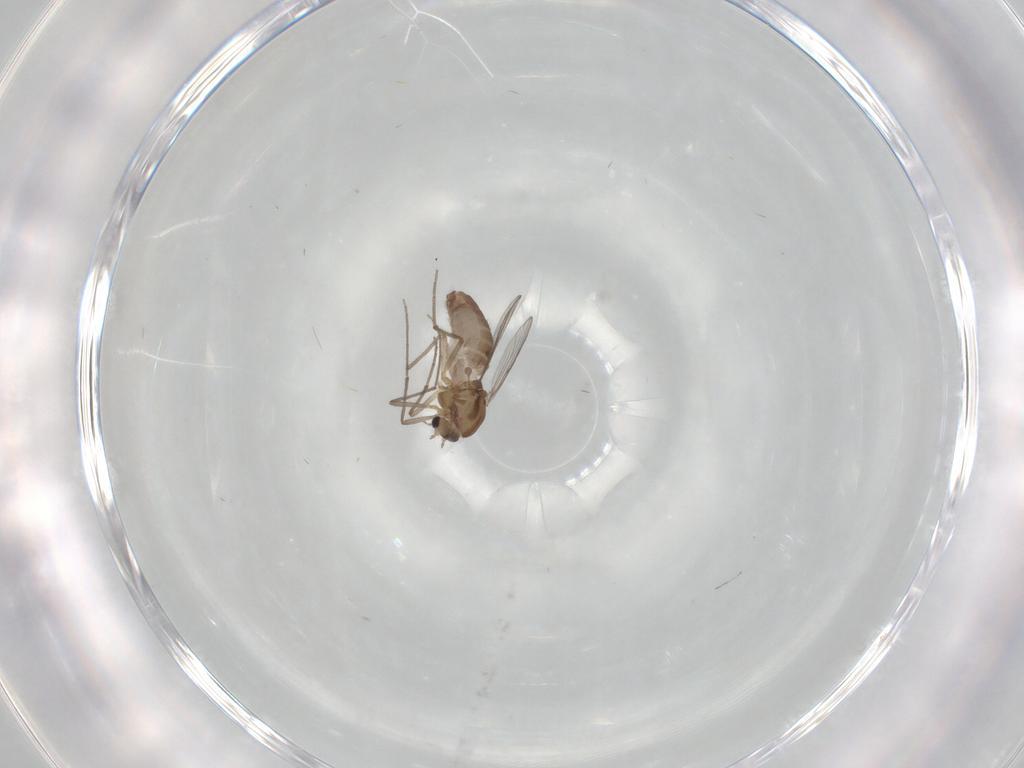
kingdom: Animalia
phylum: Arthropoda
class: Insecta
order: Diptera
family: Chironomidae
